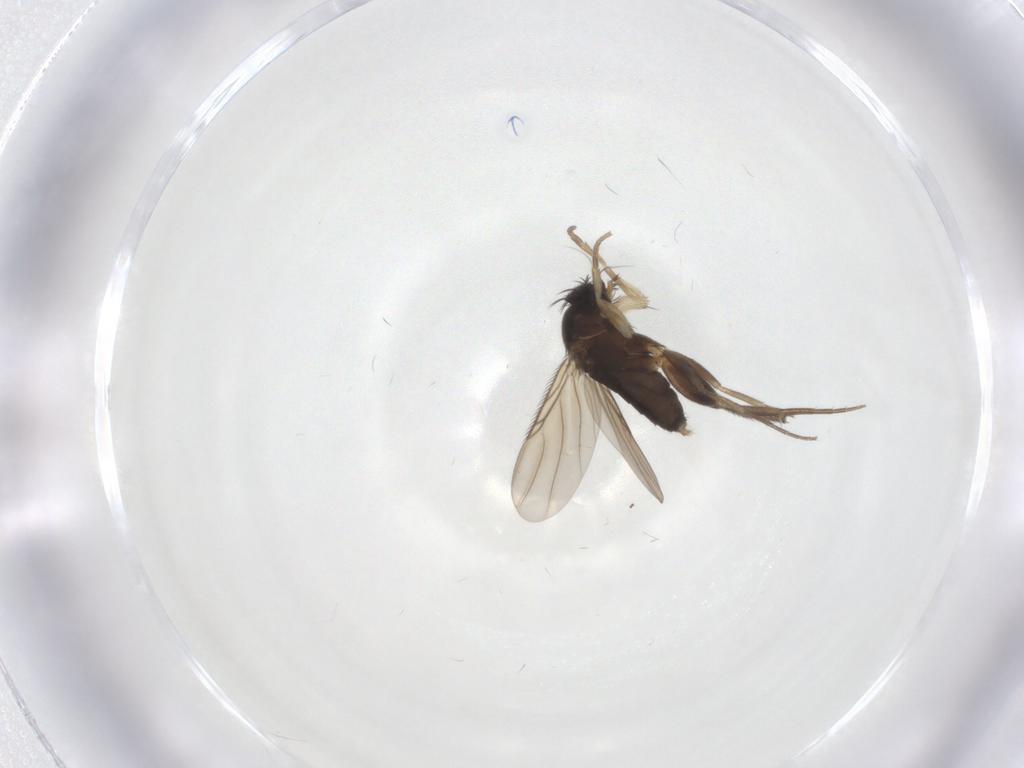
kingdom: Animalia
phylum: Arthropoda
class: Insecta
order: Diptera
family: Phoridae
